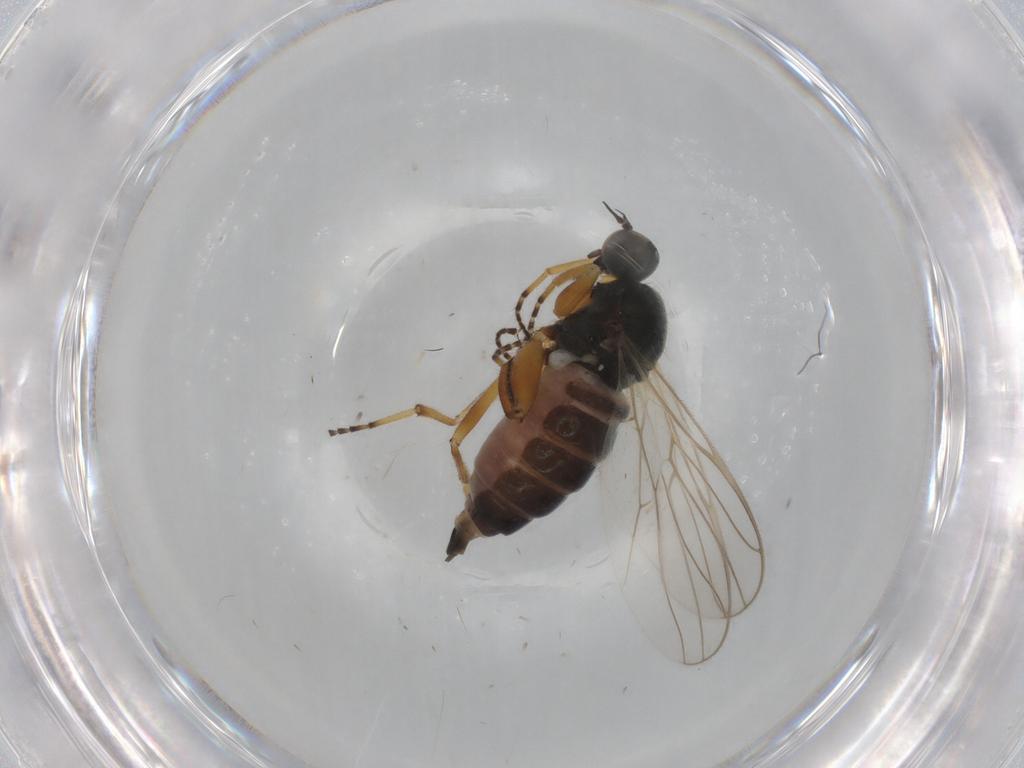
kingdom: Animalia
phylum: Arthropoda
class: Insecta
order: Diptera
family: Hybotidae
